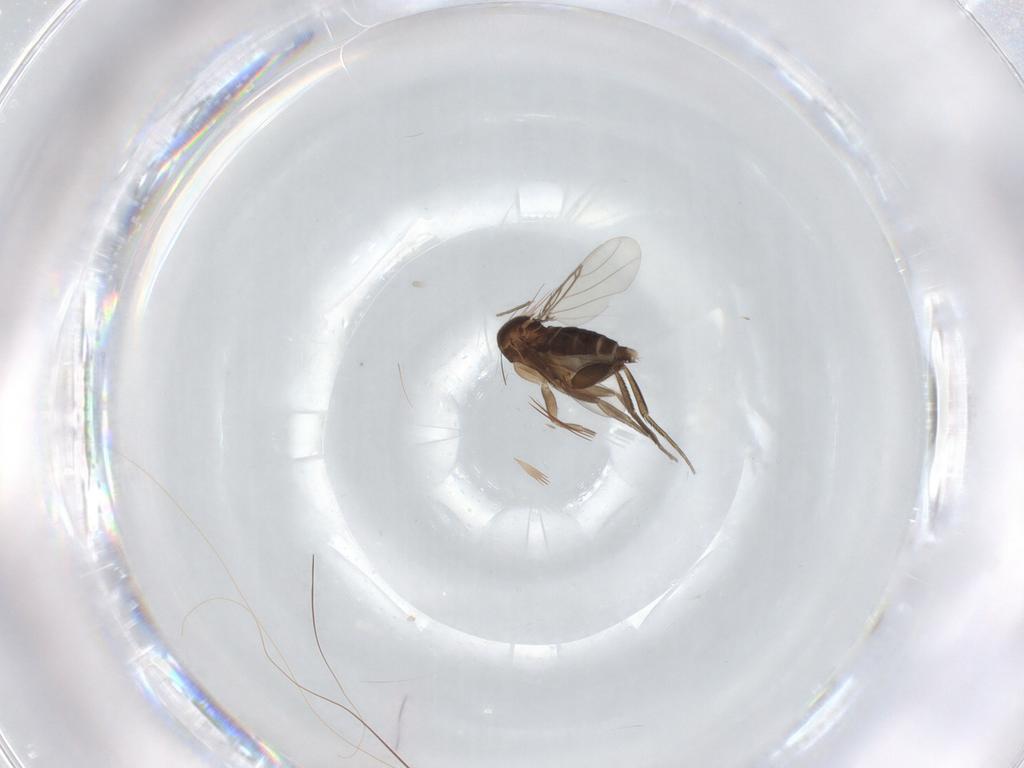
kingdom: Animalia
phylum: Arthropoda
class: Insecta
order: Diptera
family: Phoridae
